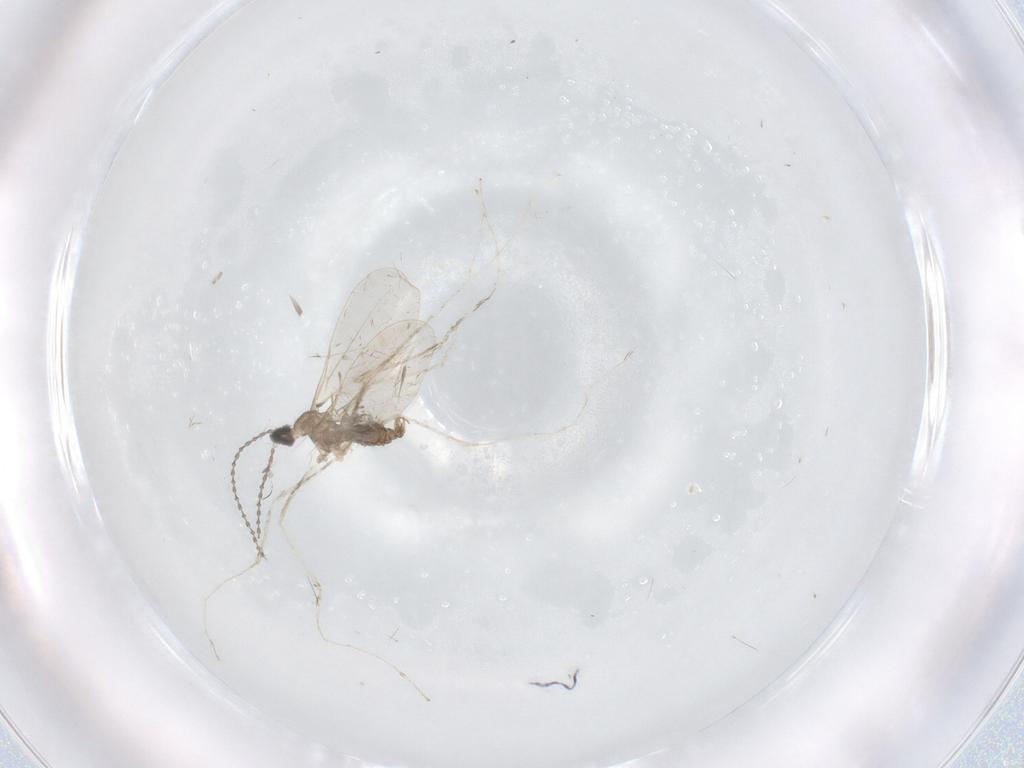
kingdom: Animalia
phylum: Arthropoda
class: Insecta
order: Diptera
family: Cecidomyiidae
